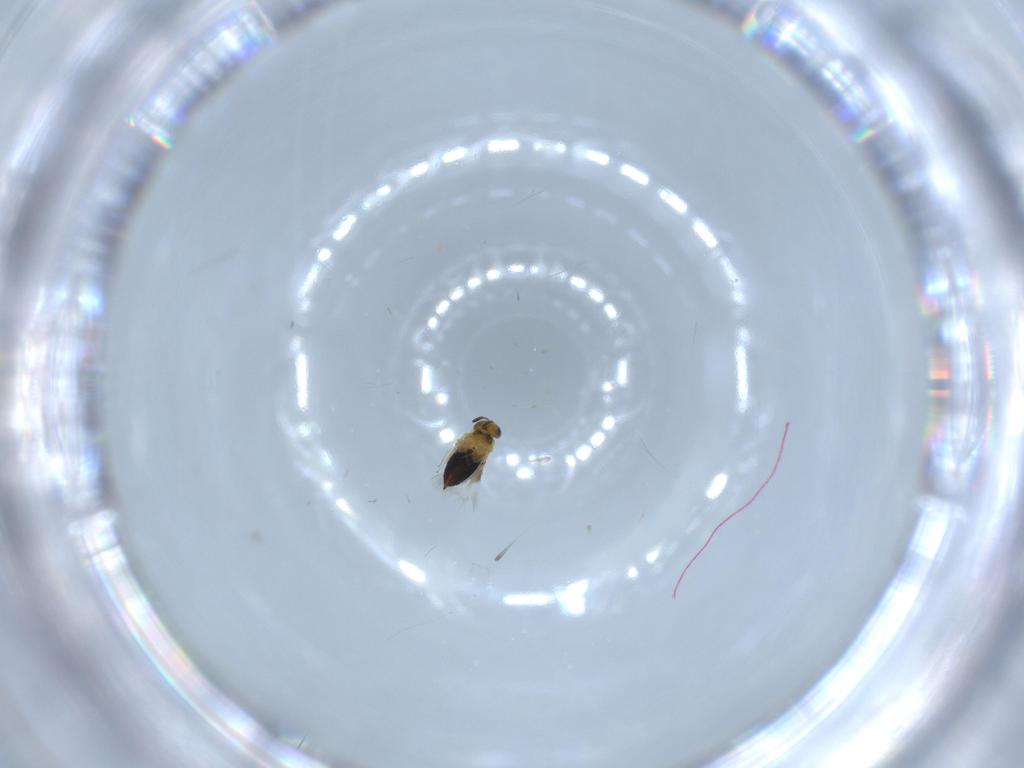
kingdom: Animalia
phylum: Arthropoda
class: Insecta
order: Hymenoptera
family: Signiphoridae
